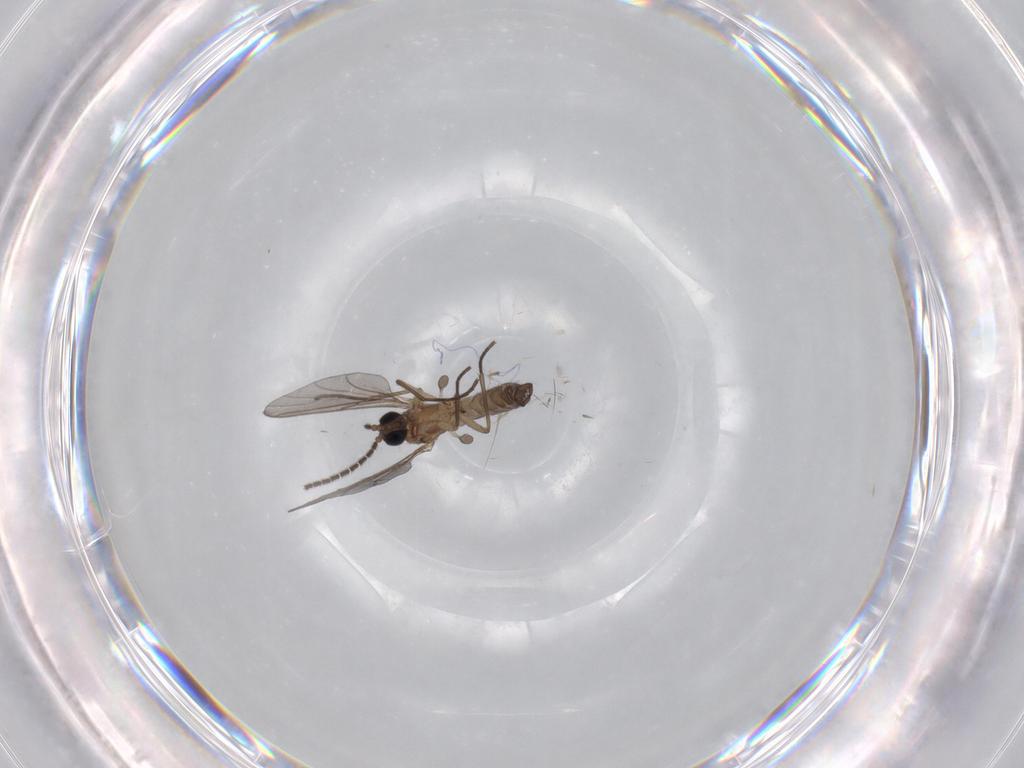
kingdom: Animalia
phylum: Arthropoda
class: Insecta
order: Diptera
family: Sciaridae
